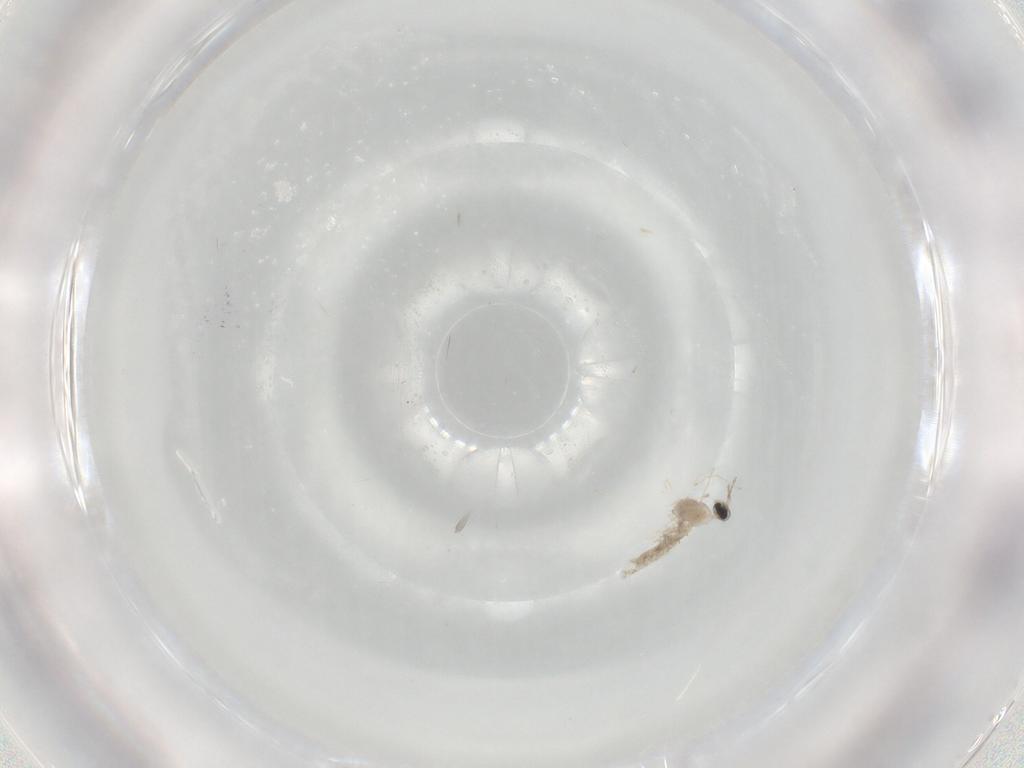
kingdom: Animalia
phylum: Arthropoda
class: Insecta
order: Diptera
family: Cecidomyiidae
